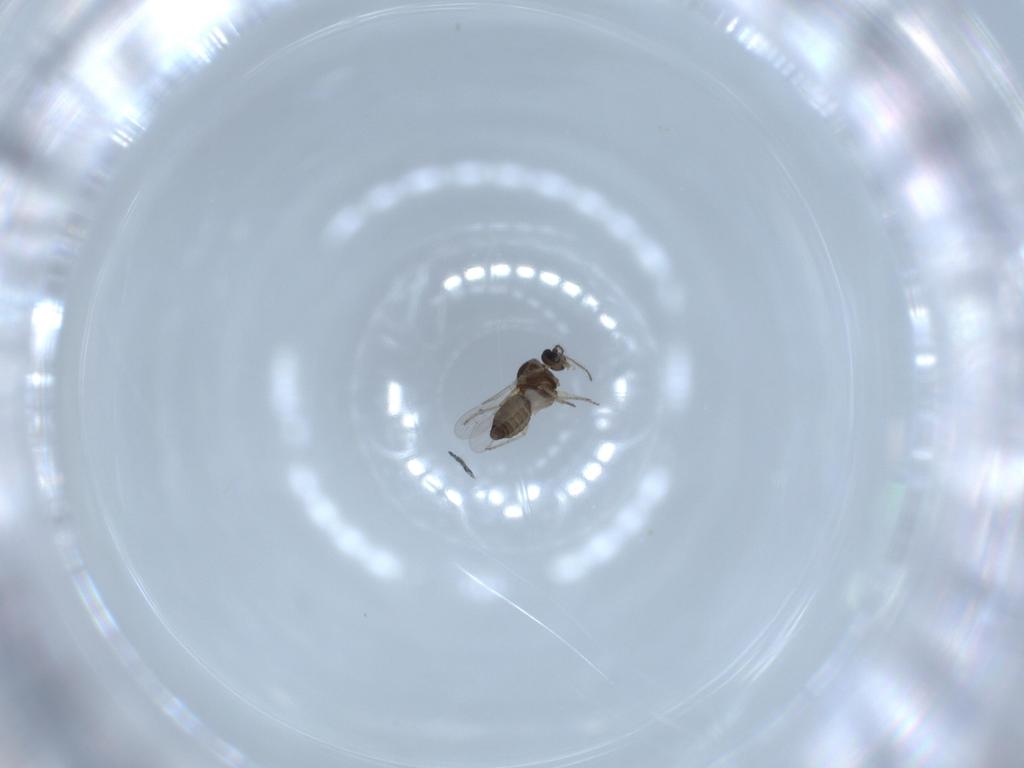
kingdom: Animalia
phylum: Arthropoda
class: Insecta
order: Diptera
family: Ceratopogonidae
